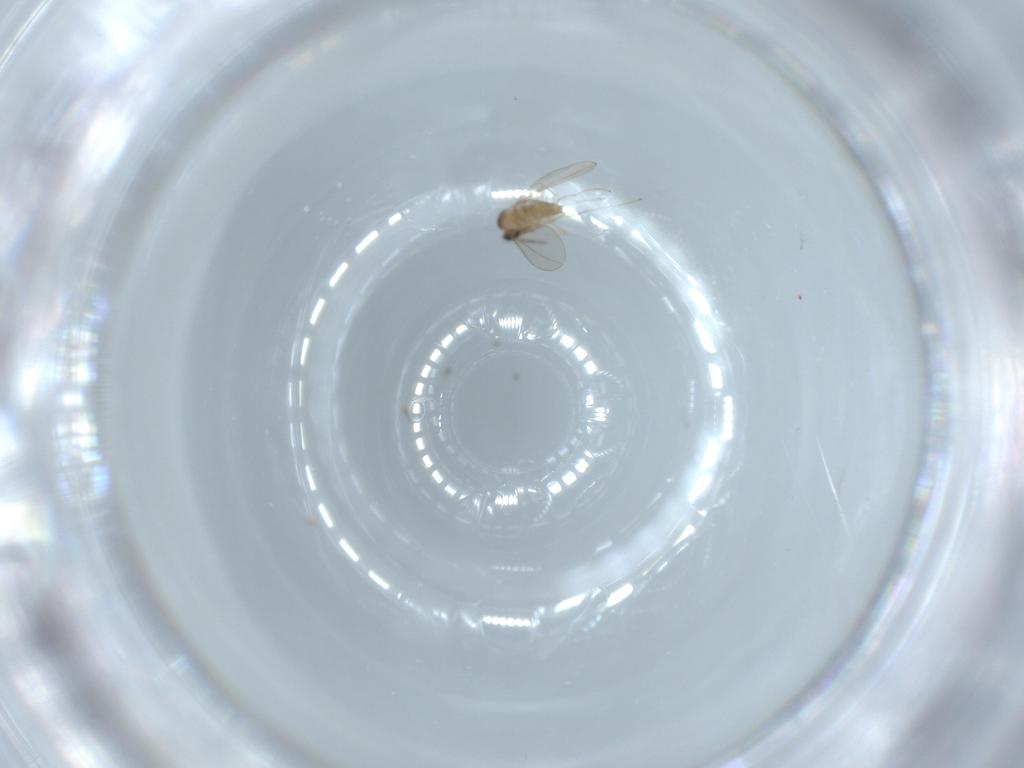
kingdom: Animalia
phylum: Arthropoda
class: Insecta
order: Diptera
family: Cecidomyiidae
